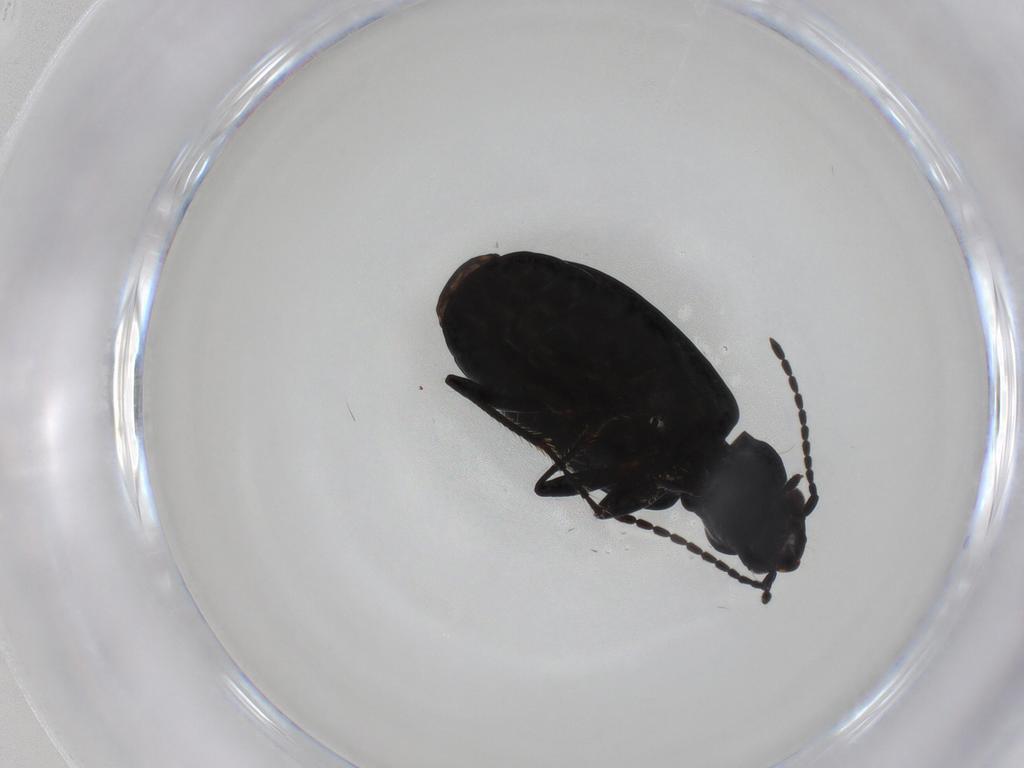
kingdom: Animalia
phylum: Arthropoda
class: Insecta
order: Coleoptera
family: Carabidae
